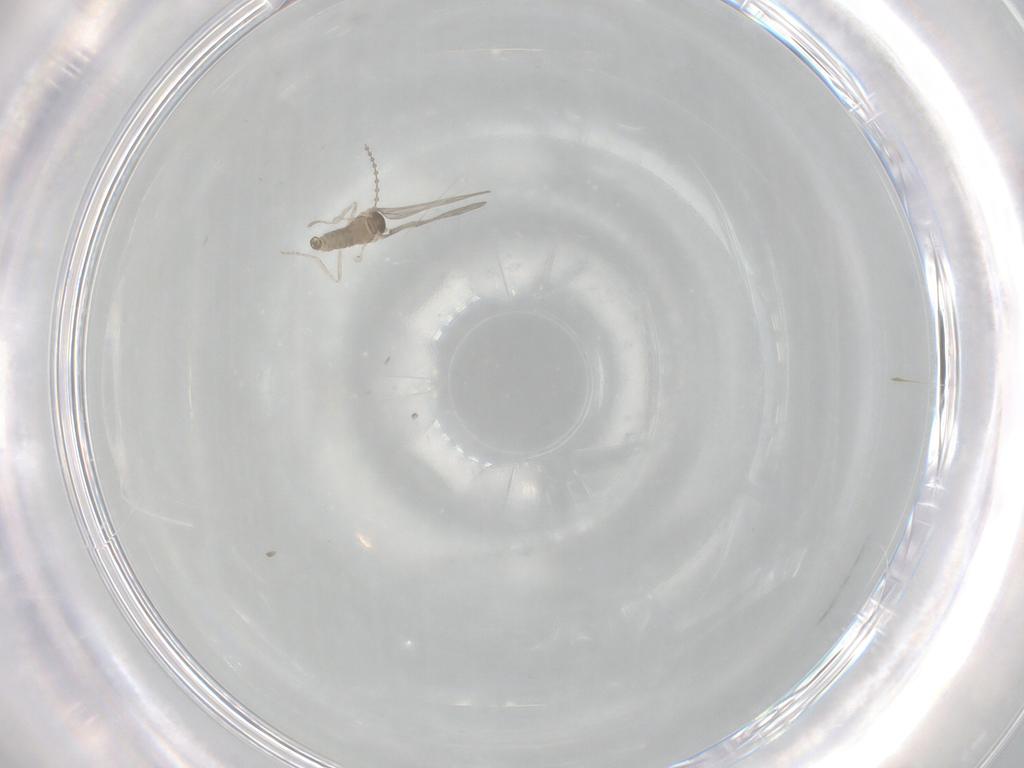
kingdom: Animalia
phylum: Arthropoda
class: Insecta
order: Diptera
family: Cecidomyiidae
